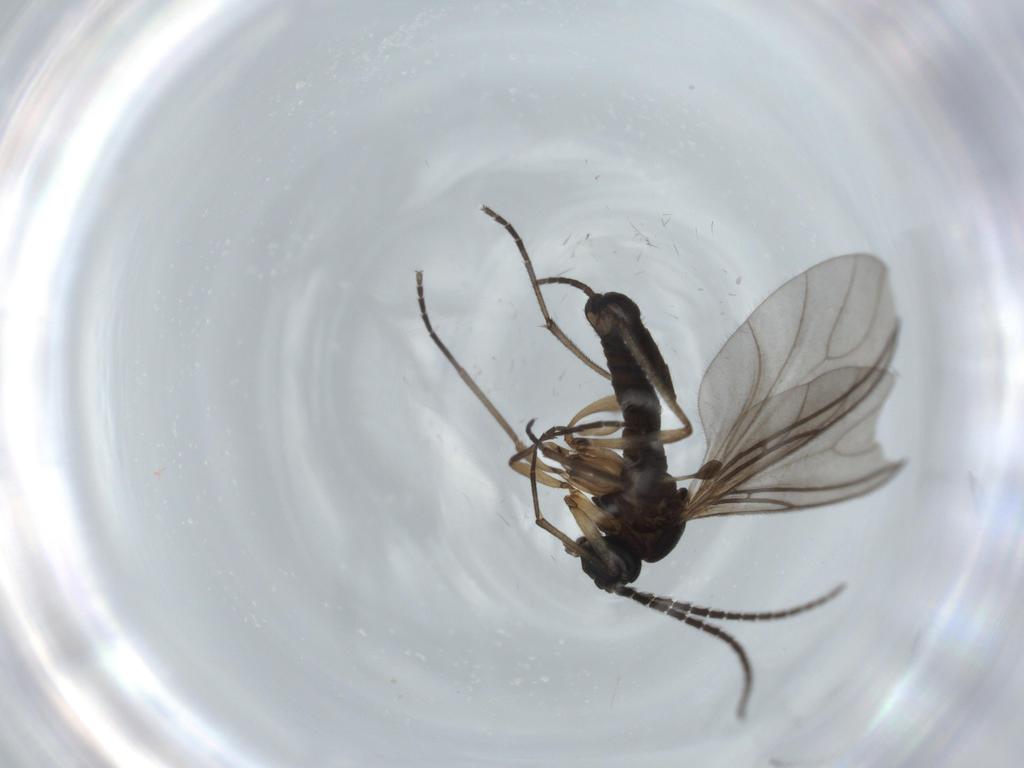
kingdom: Animalia
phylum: Arthropoda
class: Insecta
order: Diptera
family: Sciaridae
